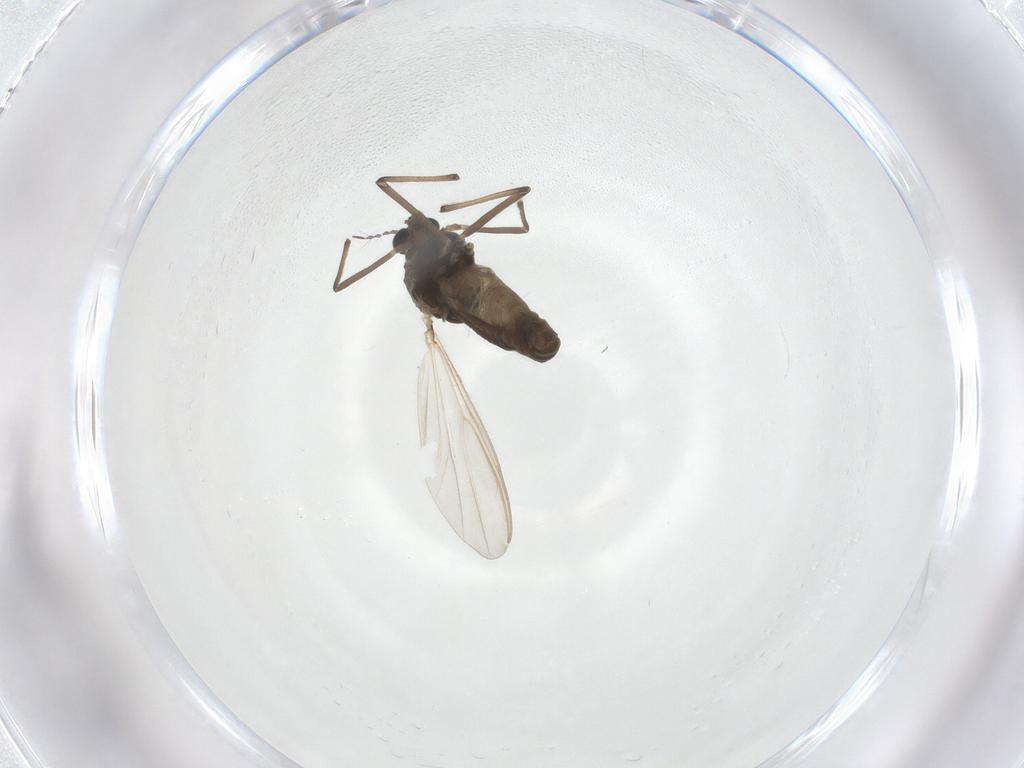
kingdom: Animalia
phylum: Arthropoda
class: Insecta
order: Diptera
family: Chironomidae
